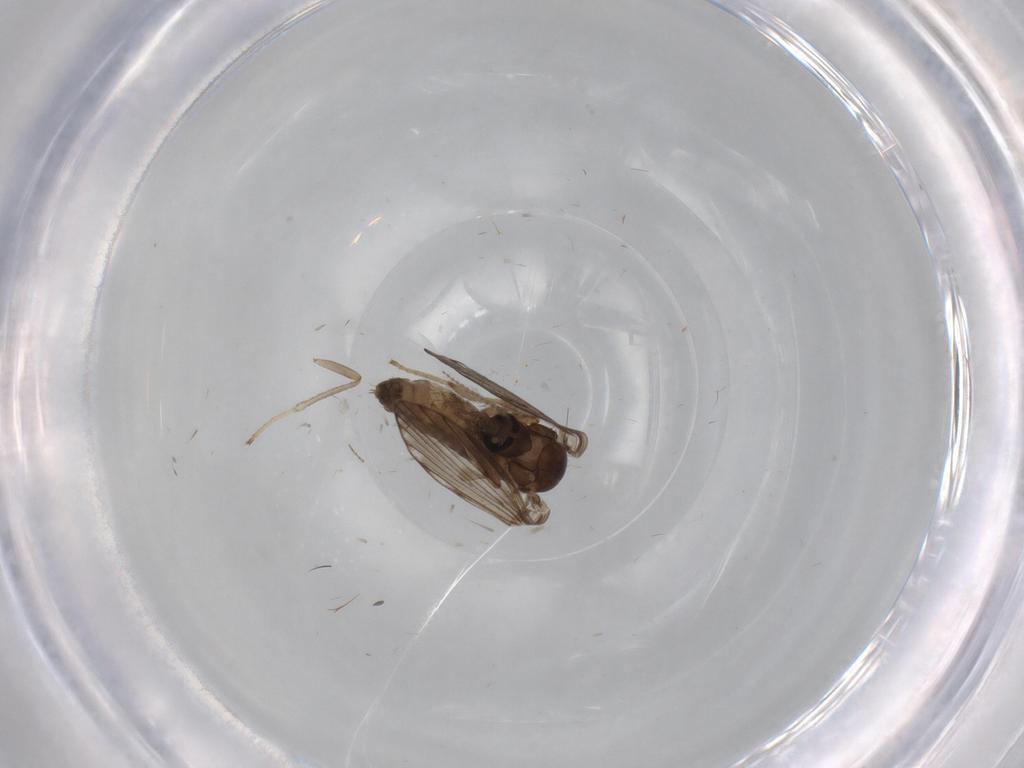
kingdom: Animalia
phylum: Arthropoda
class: Insecta
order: Diptera
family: Psychodidae
